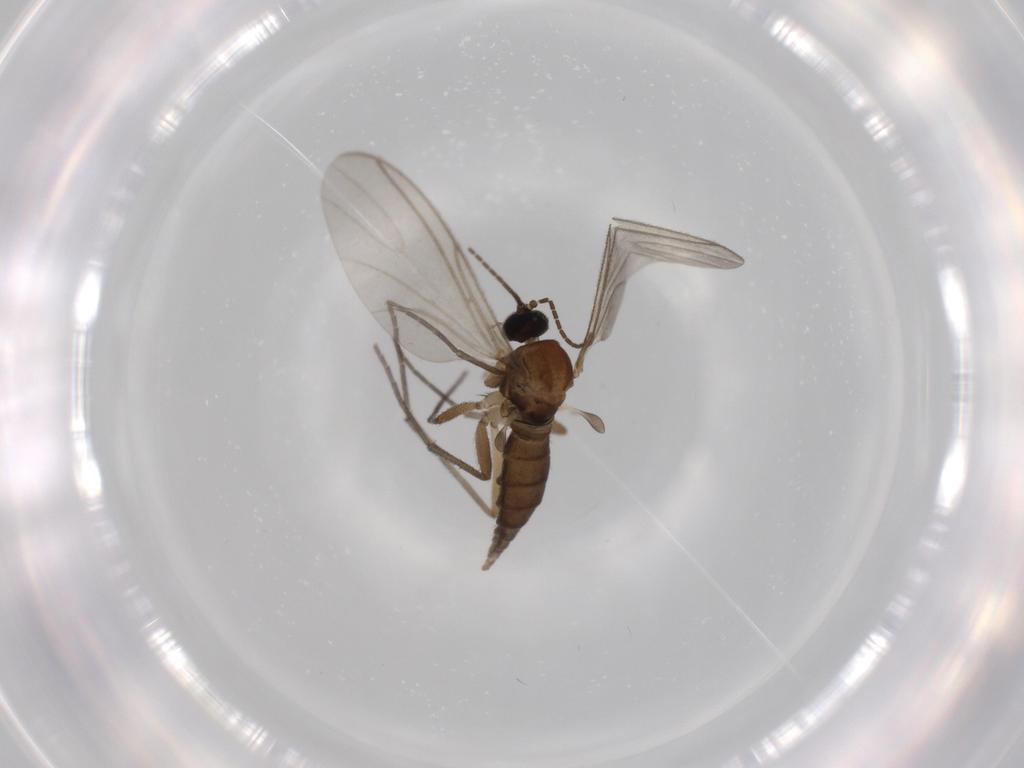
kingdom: Animalia
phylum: Arthropoda
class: Insecta
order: Diptera
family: Sciaridae
